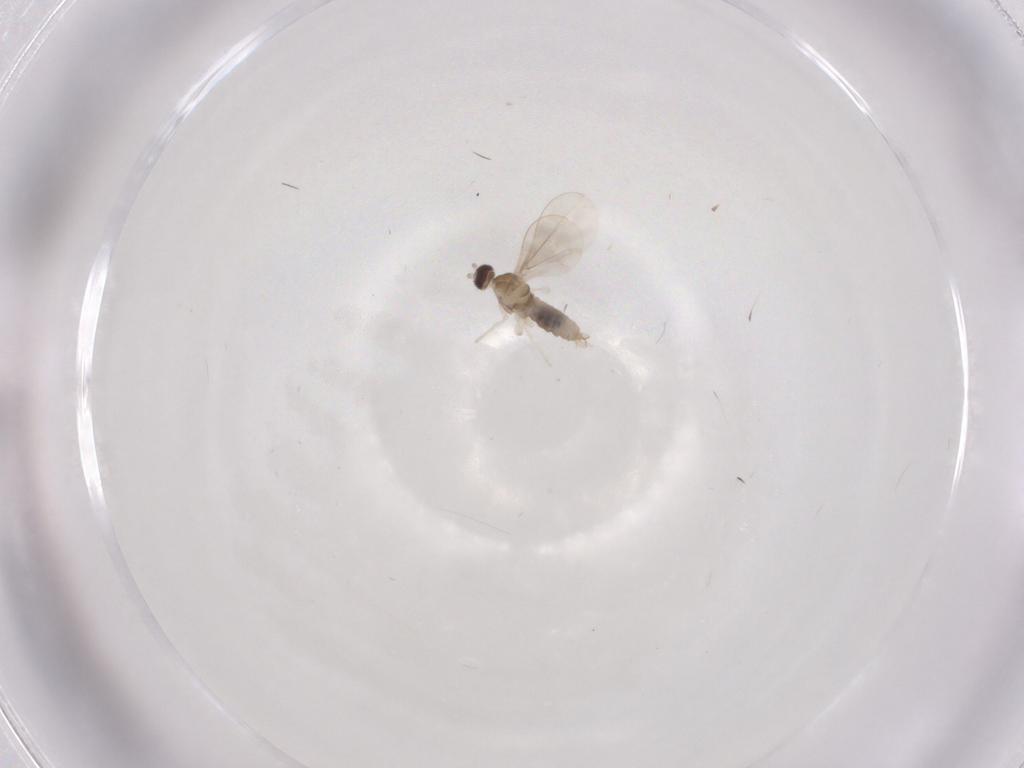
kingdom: Animalia
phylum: Arthropoda
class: Insecta
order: Diptera
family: Cecidomyiidae
